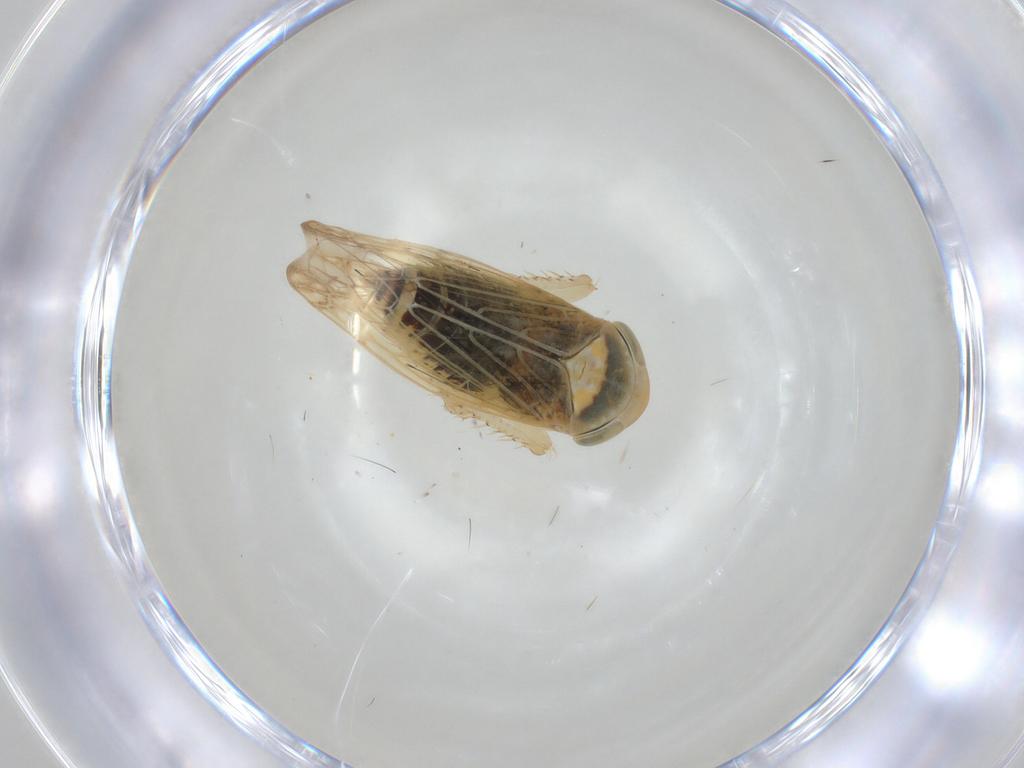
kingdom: Animalia
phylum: Arthropoda
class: Insecta
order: Hemiptera
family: Cicadellidae
